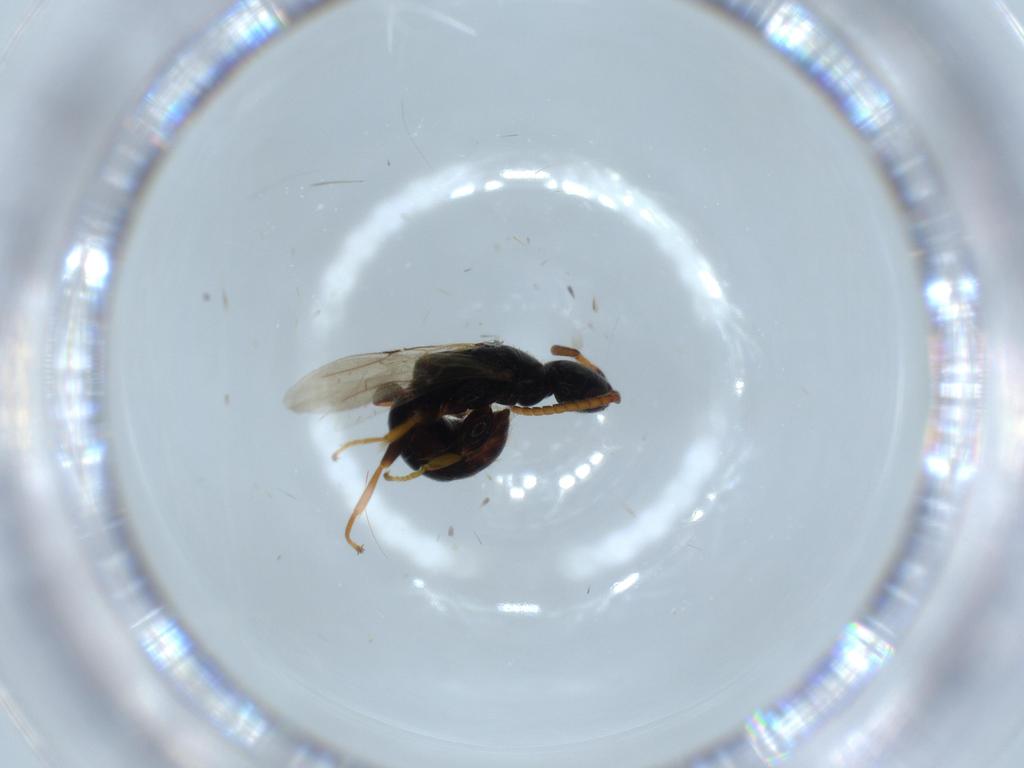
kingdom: Animalia
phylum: Arthropoda
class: Insecta
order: Hymenoptera
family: Bethylidae
